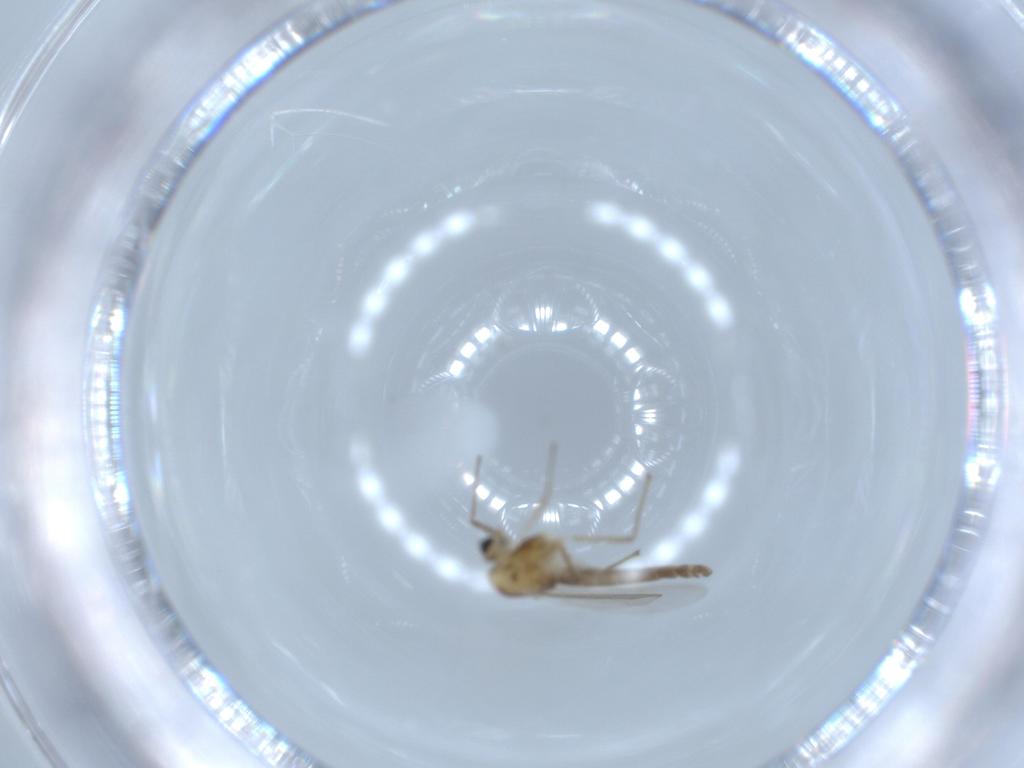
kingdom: Animalia
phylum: Arthropoda
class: Insecta
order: Diptera
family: Chironomidae
